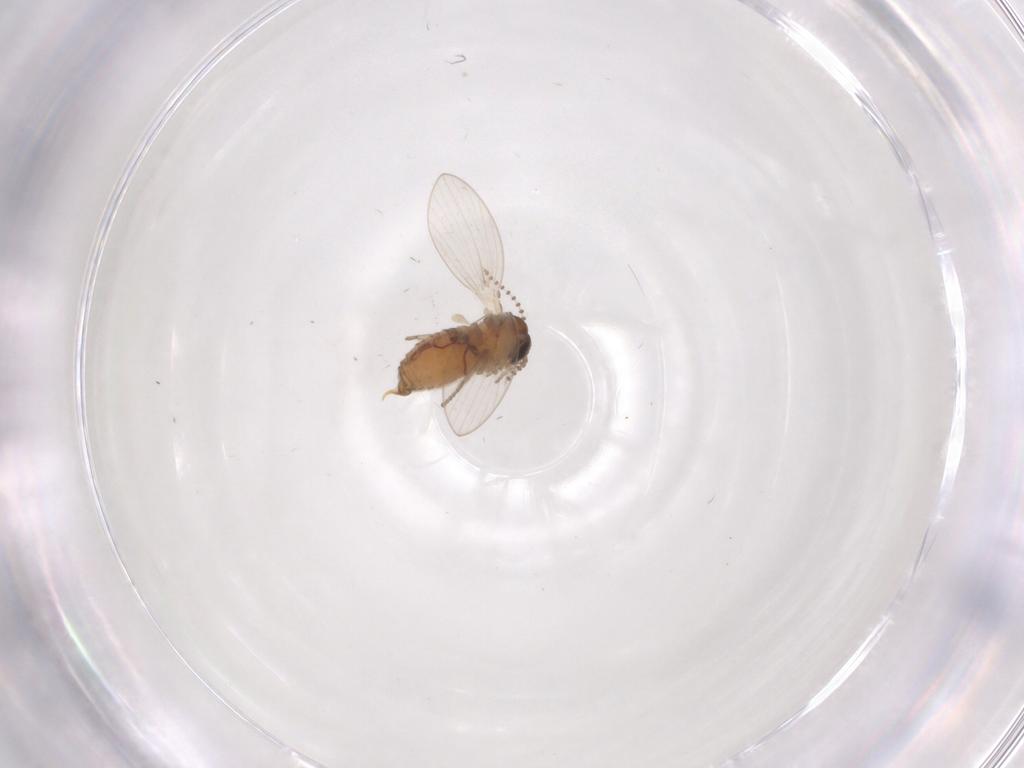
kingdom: Animalia
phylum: Arthropoda
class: Insecta
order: Diptera
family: Psychodidae
